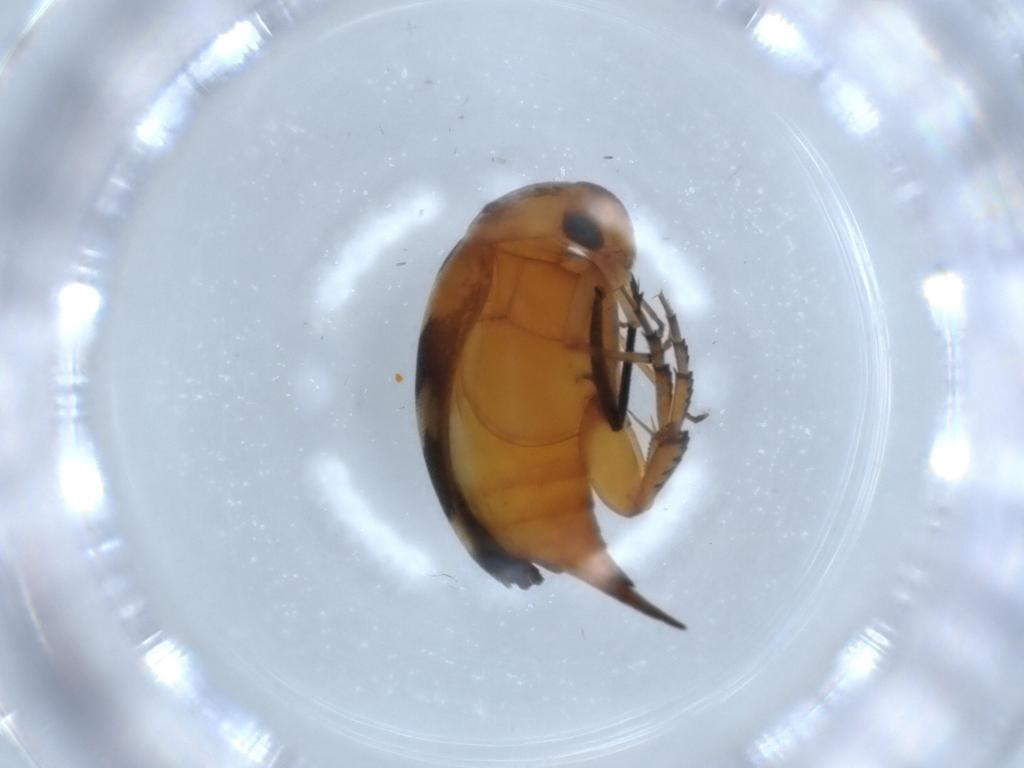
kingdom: Animalia
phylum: Arthropoda
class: Insecta
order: Coleoptera
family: Mordellidae
